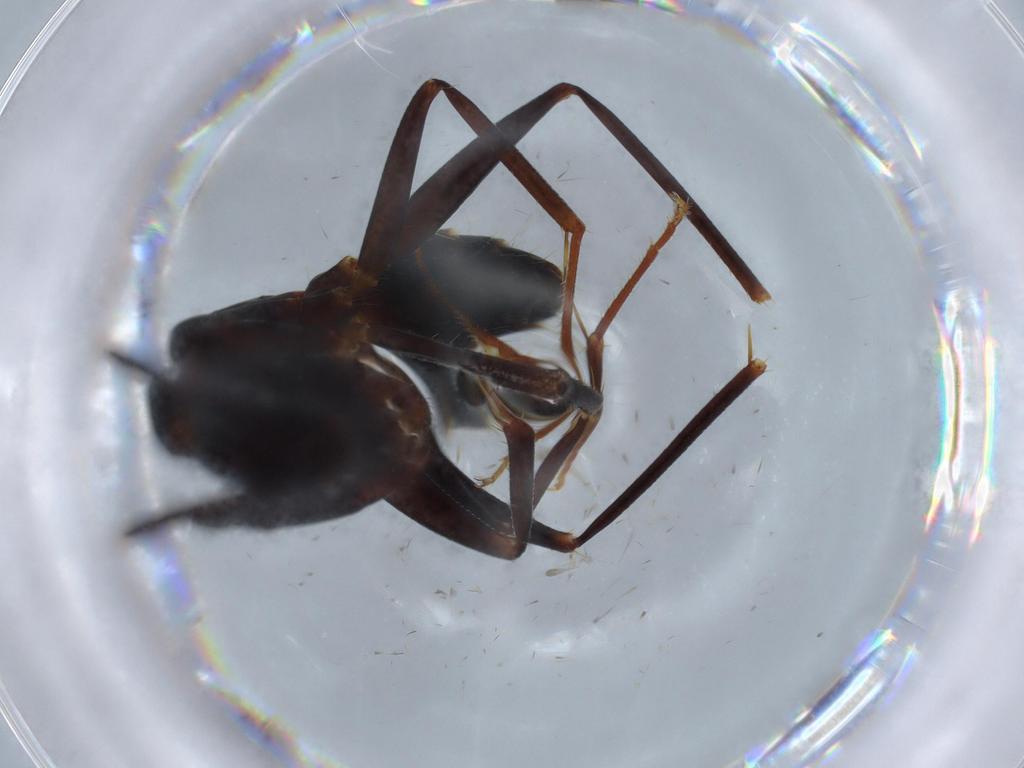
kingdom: Animalia
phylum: Arthropoda
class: Insecta
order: Hymenoptera
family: Formicidae
